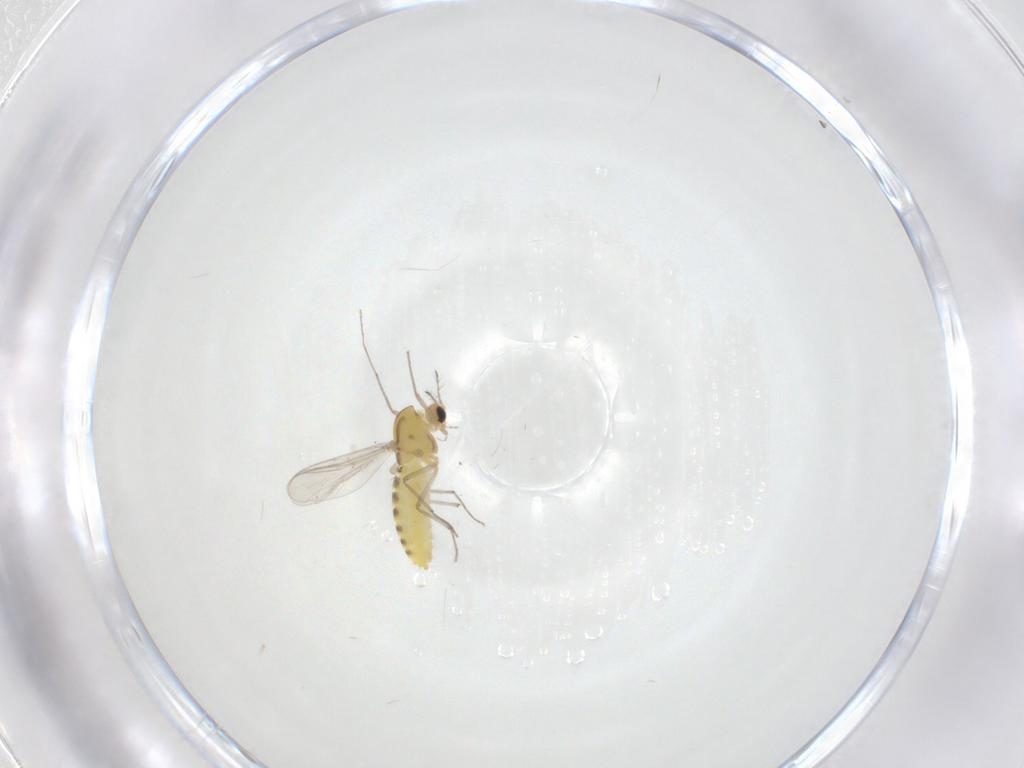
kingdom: Animalia
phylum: Arthropoda
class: Insecta
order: Diptera
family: Chironomidae
